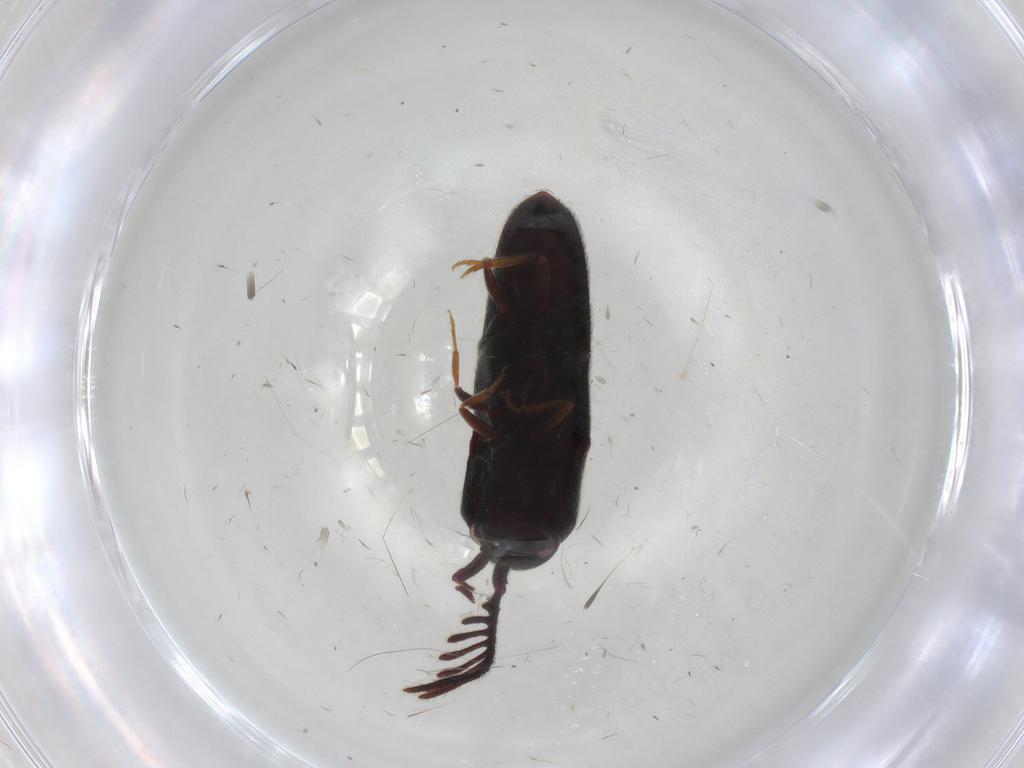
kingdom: Animalia
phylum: Arthropoda
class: Insecta
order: Coleoptera
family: Eucnemidae
